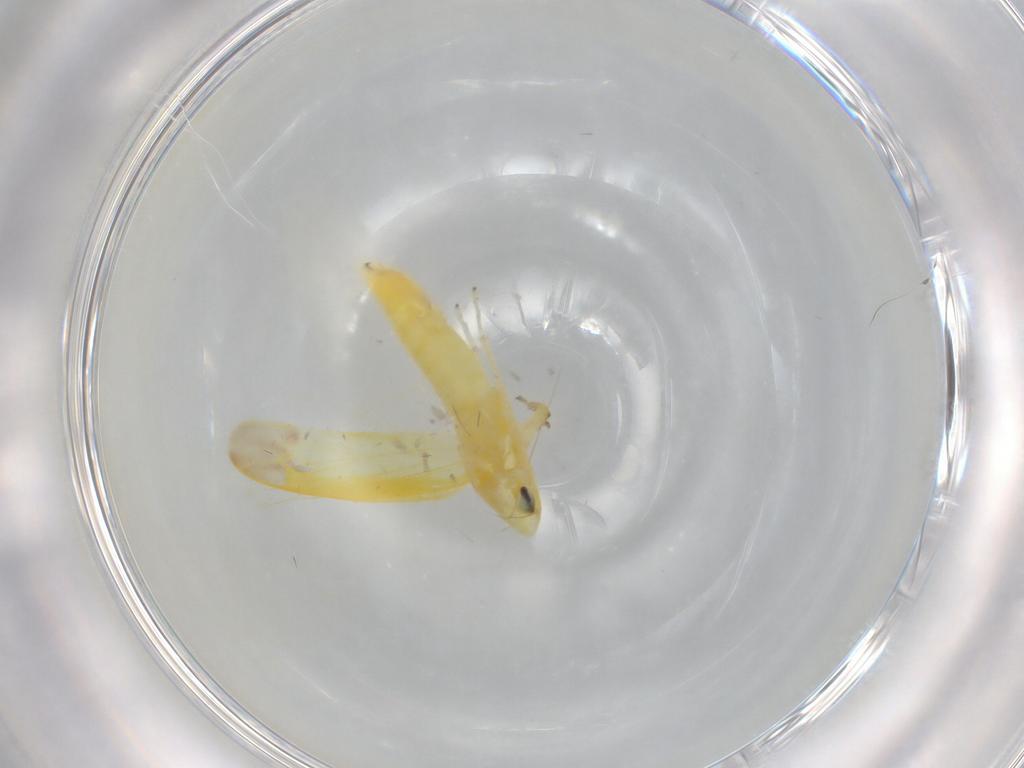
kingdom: Animalia
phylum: Arthropoda
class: Insecta
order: Hemiptera
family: Cicadellidae
